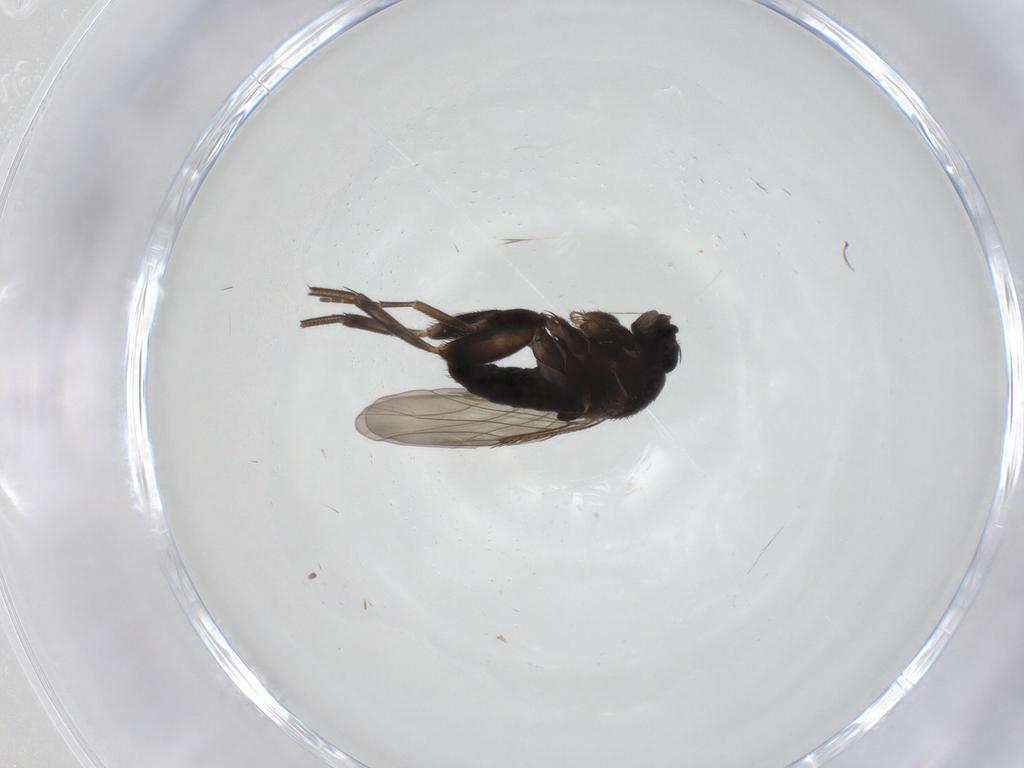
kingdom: Animalia
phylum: Arthropoda
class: Insecta
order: Diptera
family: Phoridae
